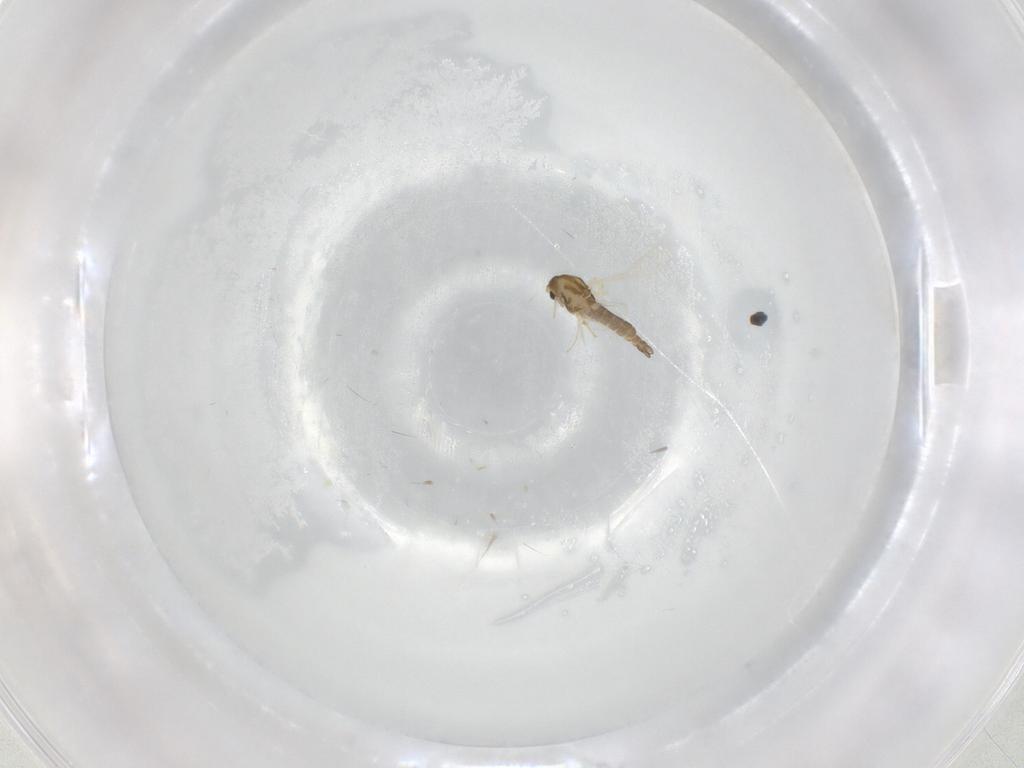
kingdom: Animalia
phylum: Arthropoda
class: Insecta
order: Diptera
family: Chironomidae
